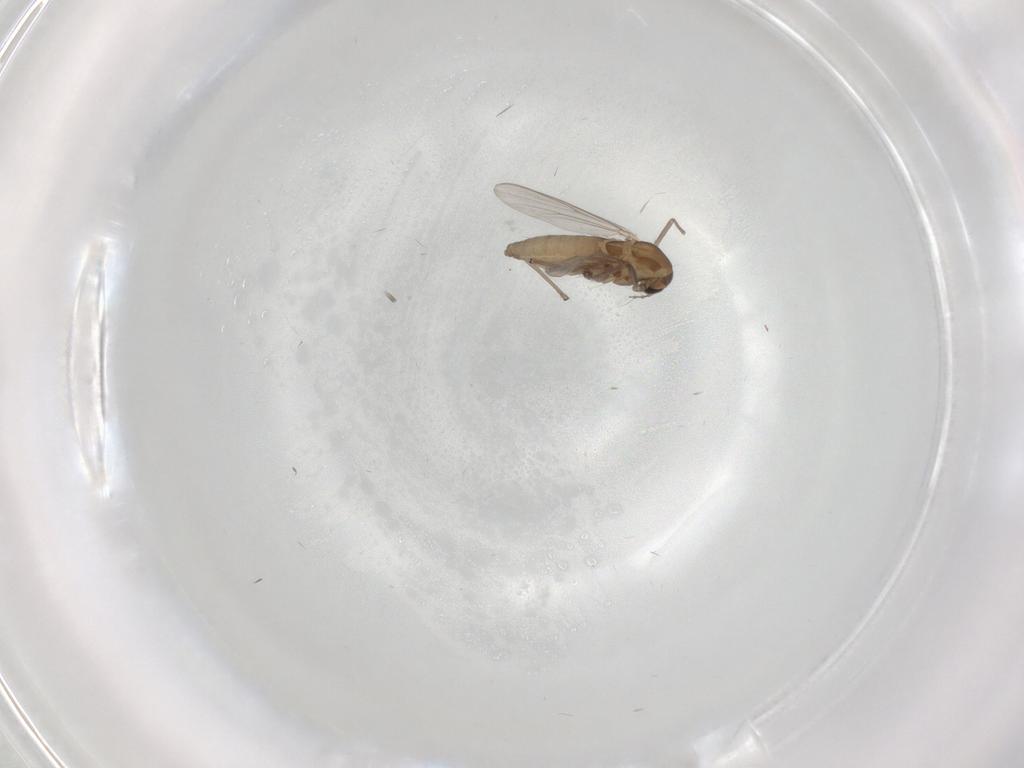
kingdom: Animalia
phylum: Arthropoda
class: Insecta
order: Diptera
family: Chironomidae
